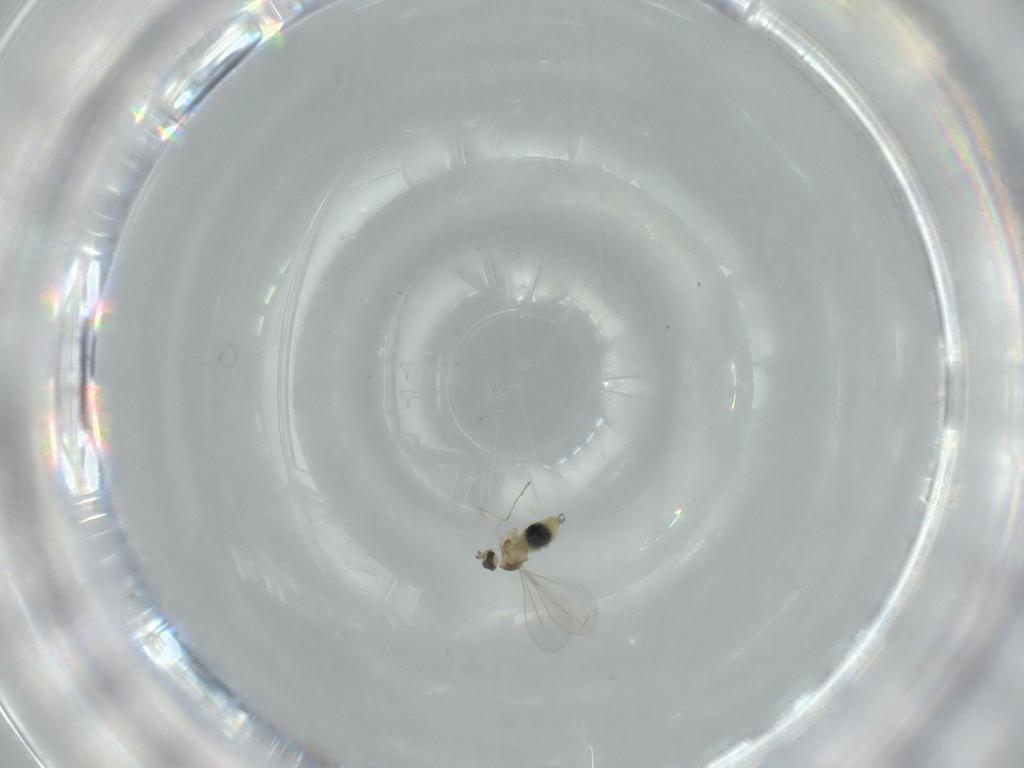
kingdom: Animalia
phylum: Arthropoda
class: Insecta
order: Diptera
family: Cecidomyiidae
